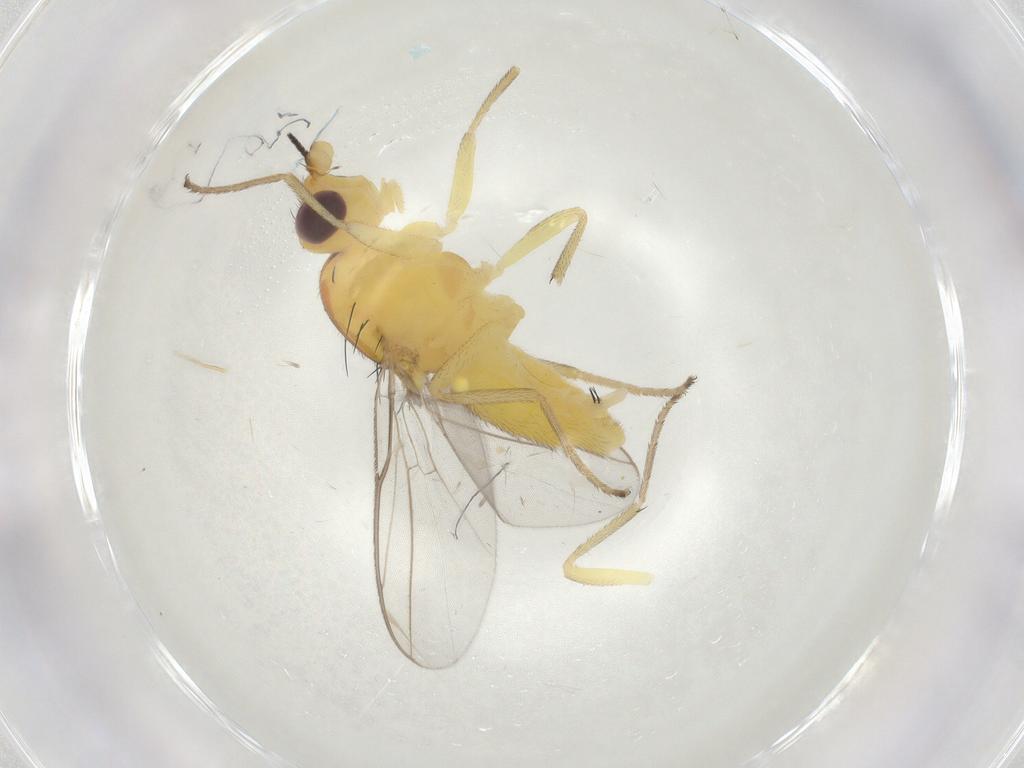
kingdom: Animalia
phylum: Arthropoda
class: Insecta
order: Diptera
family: Chloropidae
